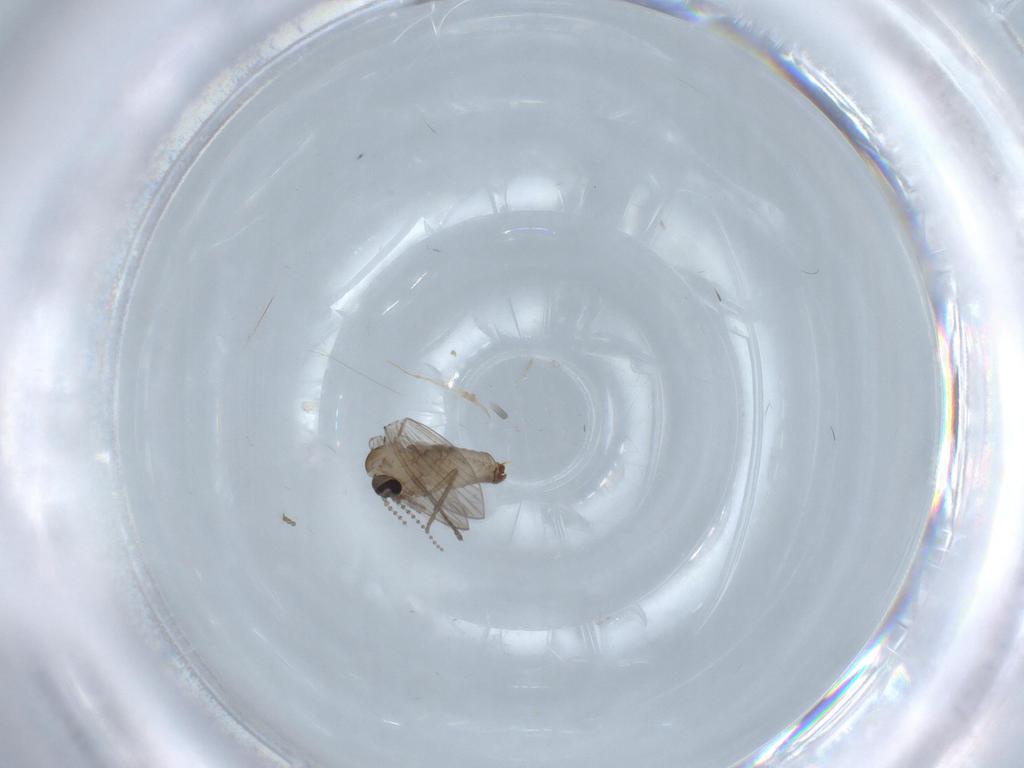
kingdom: Animalia
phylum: Arthropoda
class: Insecta
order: Diptera
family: Psychodidae
